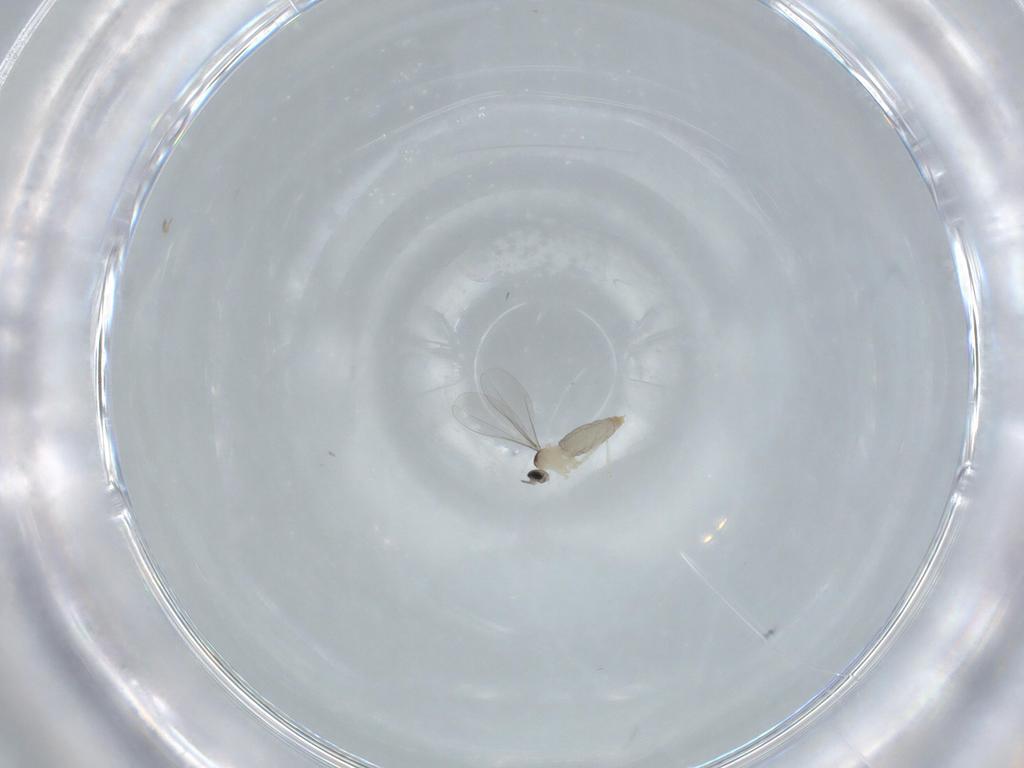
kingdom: Animalia
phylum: Arthropoda
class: Insecta
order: Diptera
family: Cecidomyiidae
